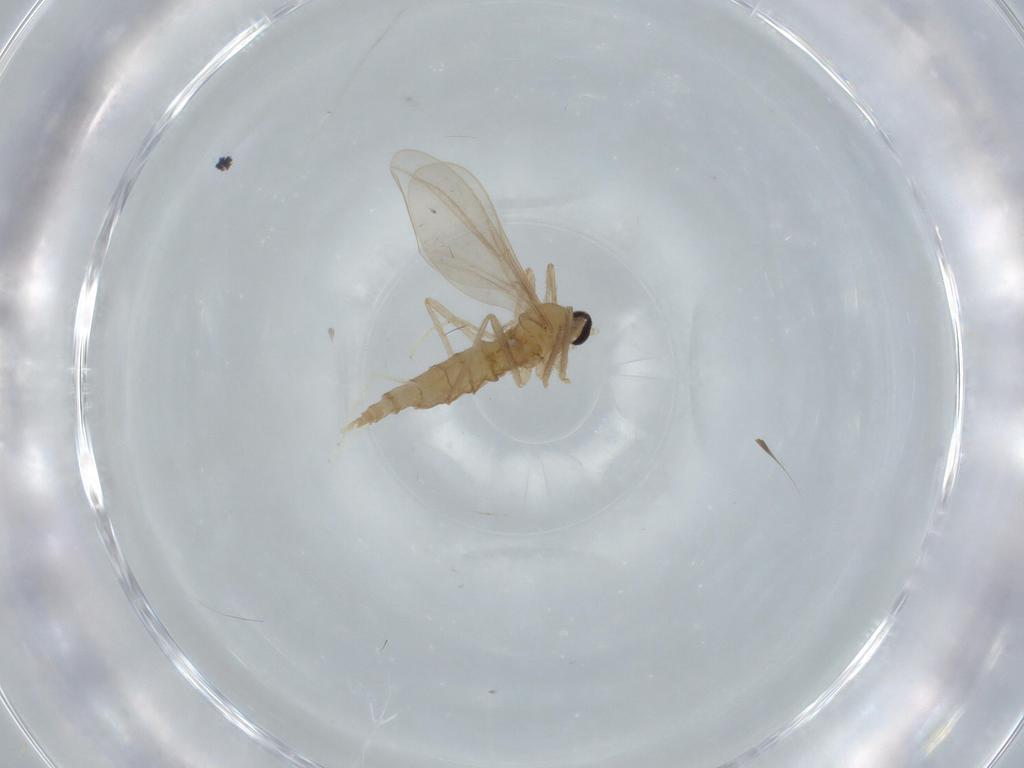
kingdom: Animalia
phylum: Arthropoda
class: Insecta
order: Diptera
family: Cecidomyiidae
